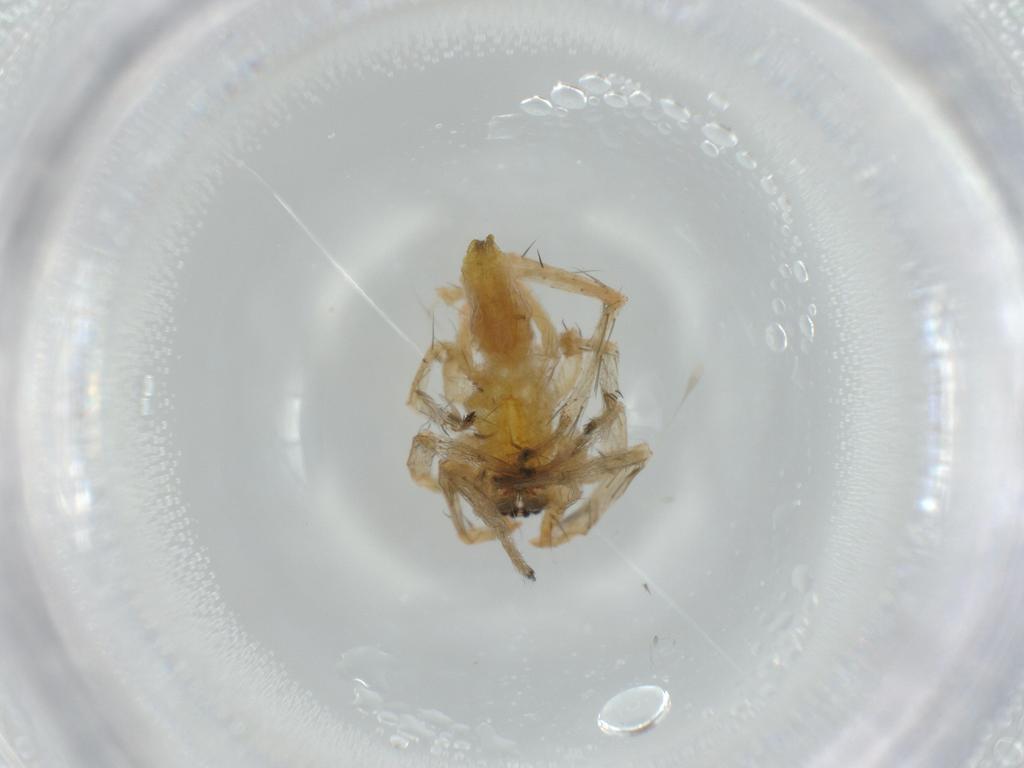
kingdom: Animalia
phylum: Arthropoda
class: Arachnida
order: Araneae
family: Anyphaenidae
